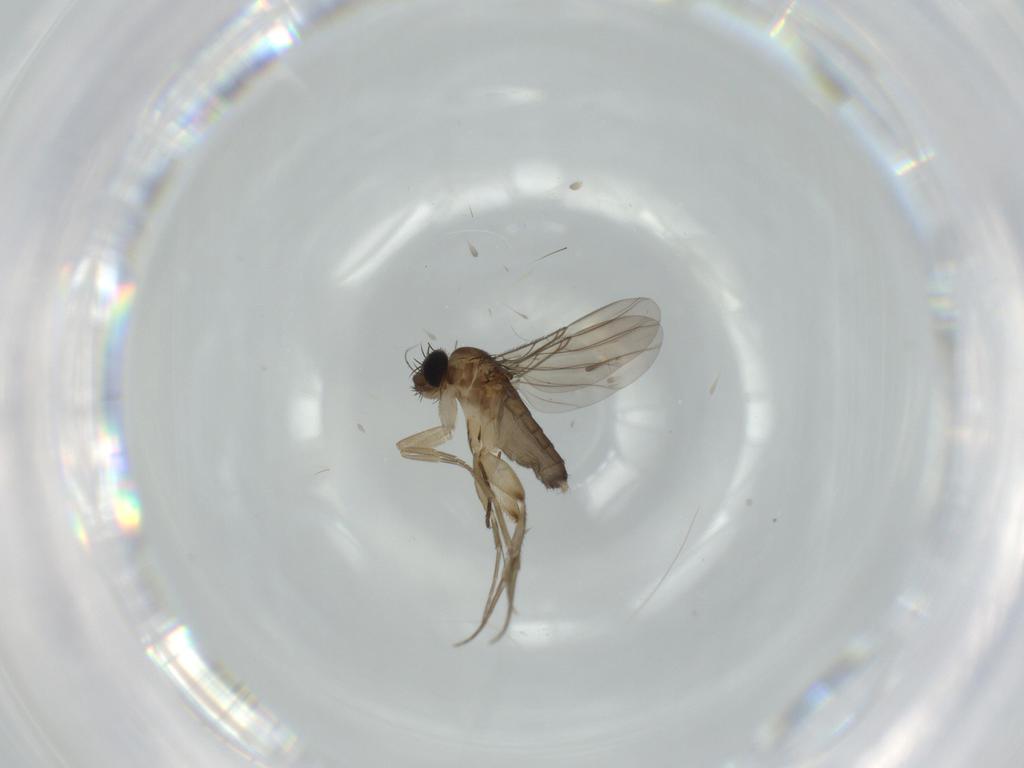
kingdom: Animalia
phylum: Arthropoda
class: Insecta
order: Diptera
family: Phoridae
